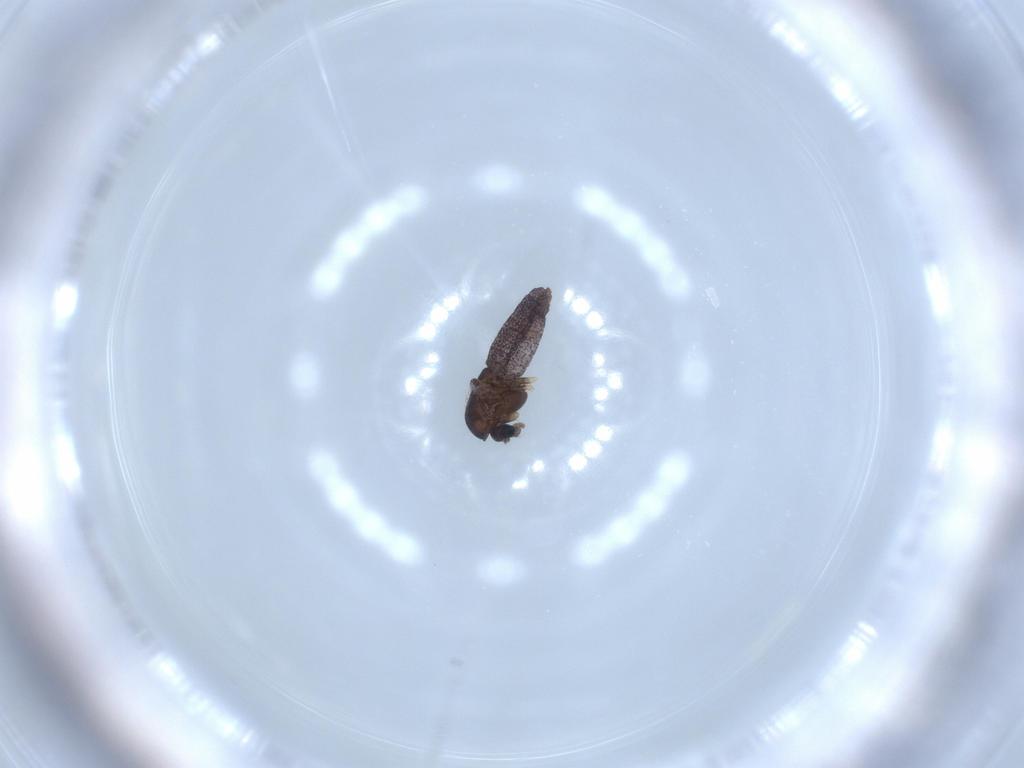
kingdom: Animalia
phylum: Arthropoda
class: Insecta
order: Diptera
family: Chironomidae
